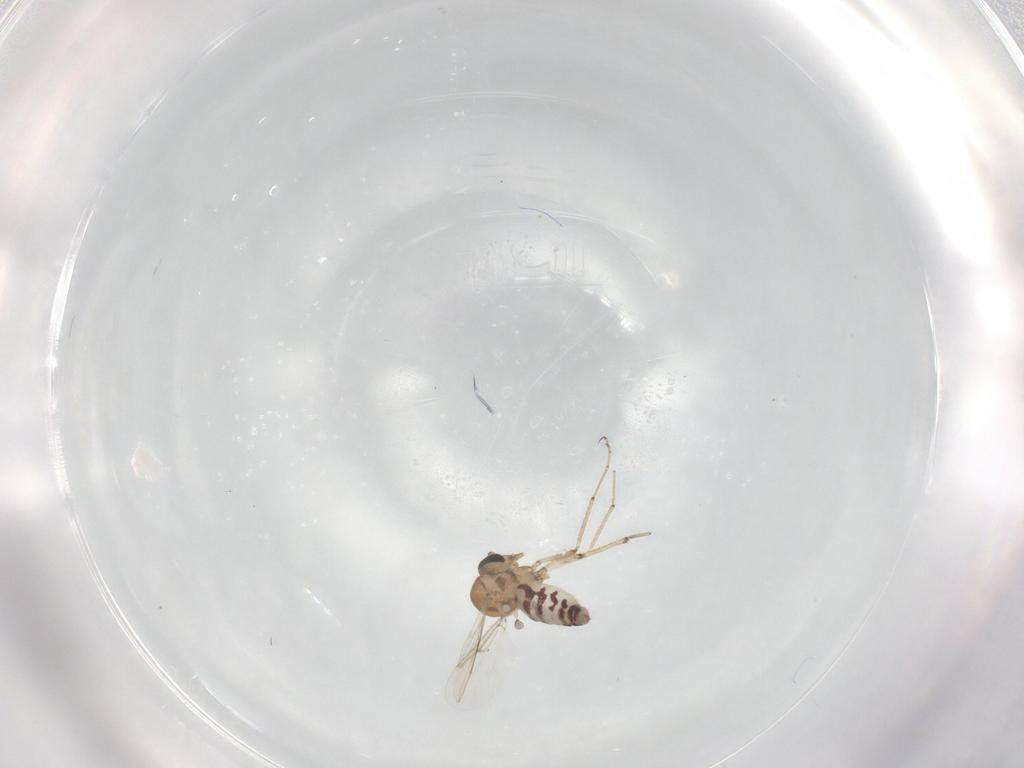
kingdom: Animalia
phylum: Arthropoda
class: Insecta
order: Diptera
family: Ceratopogonidae
